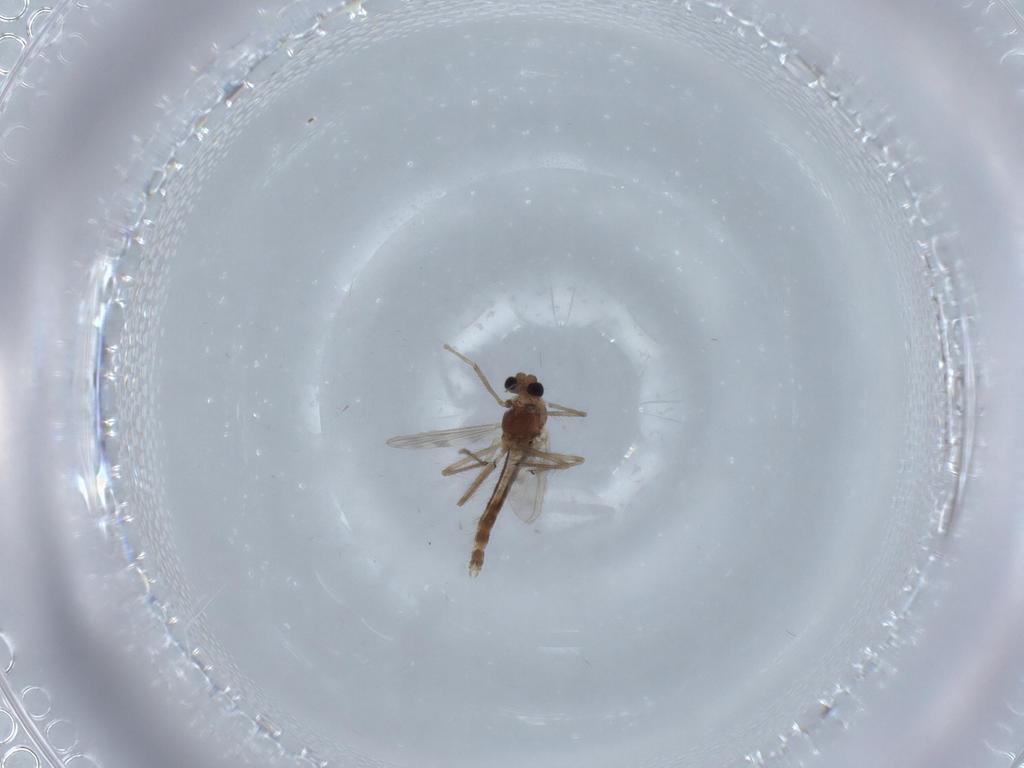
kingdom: Animalia
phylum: Arthropoda
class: Insecta
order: Diptera
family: Chironomidae
